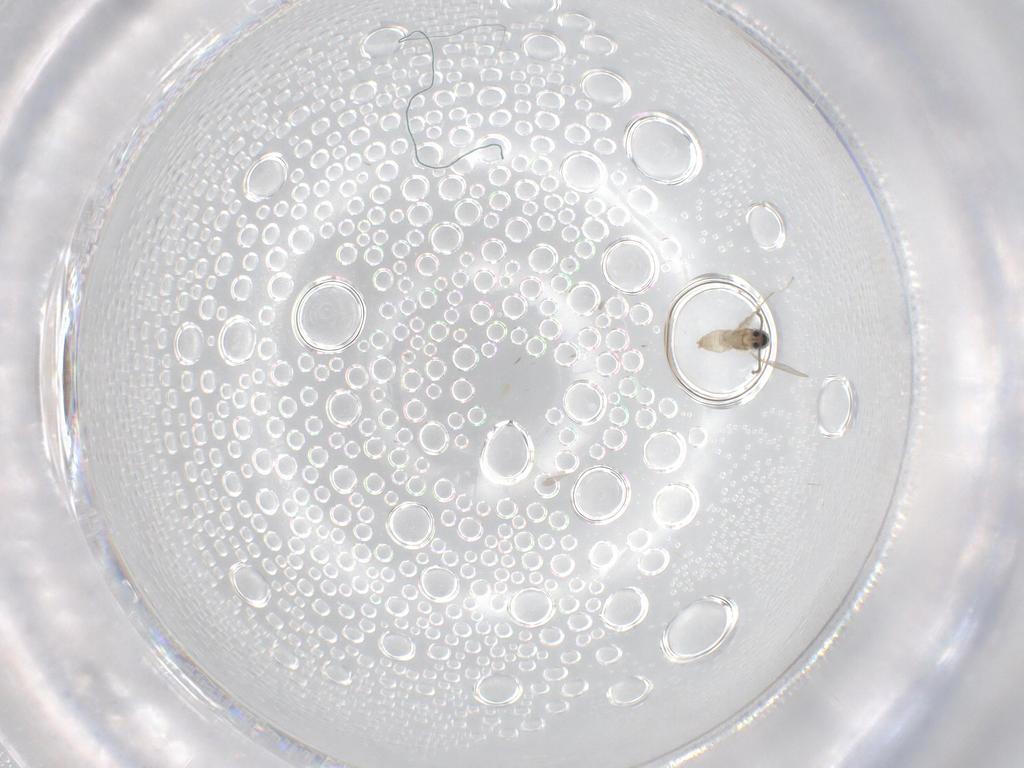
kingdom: Animalia
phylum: Arthropoda
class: Insecta
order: Diptera
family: Cecidomyiidae
